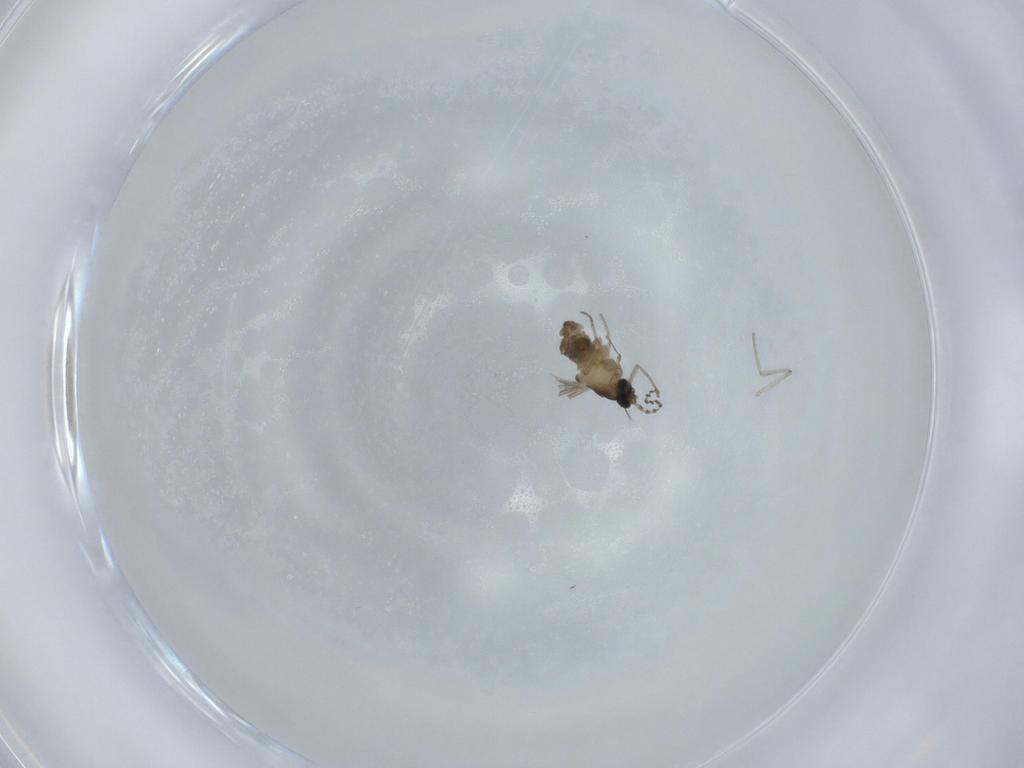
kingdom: Animalia
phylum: Arthropoda
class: Insecta
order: Diptera
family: Cecidomyiidae
